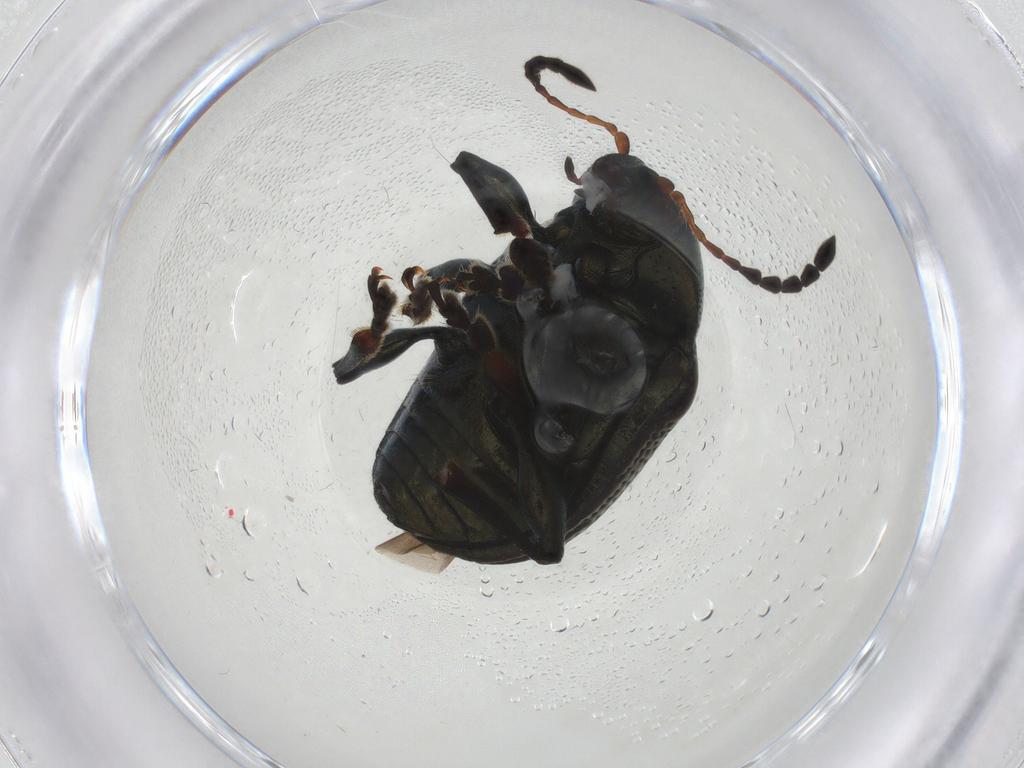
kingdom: Animalia
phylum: Arthropoda
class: Insecta
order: Coleoptera
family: Chrysomelidae
